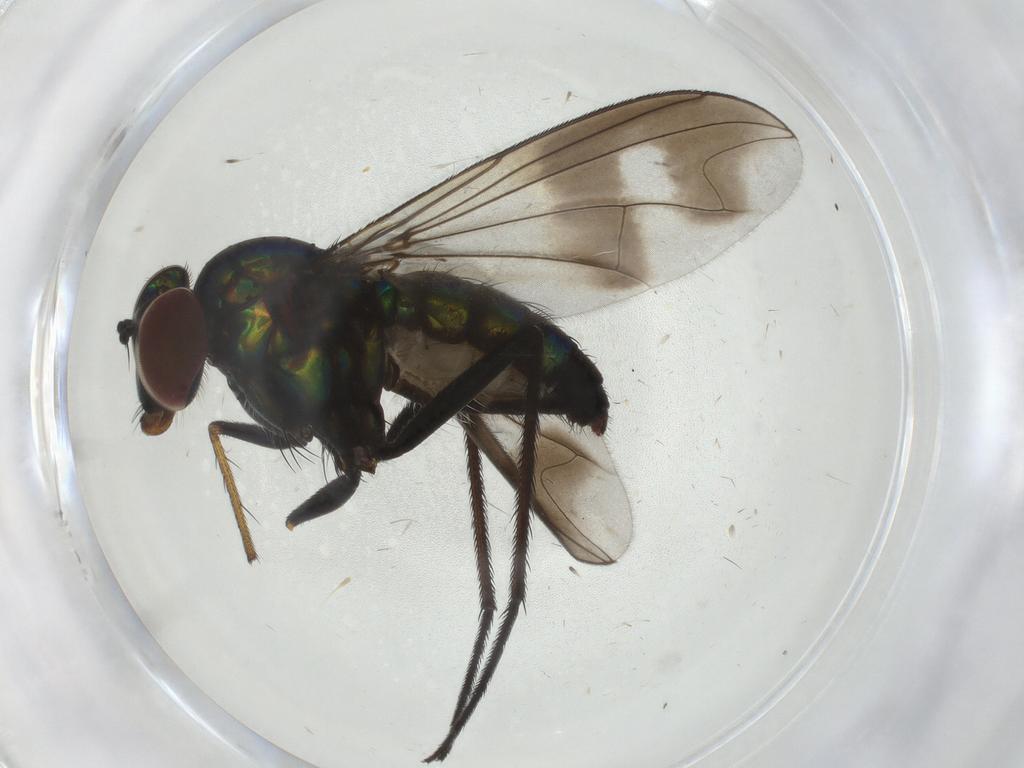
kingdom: Animalia
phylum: Arthropoda
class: Insecta
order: Diptera
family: Dolichopodidae
